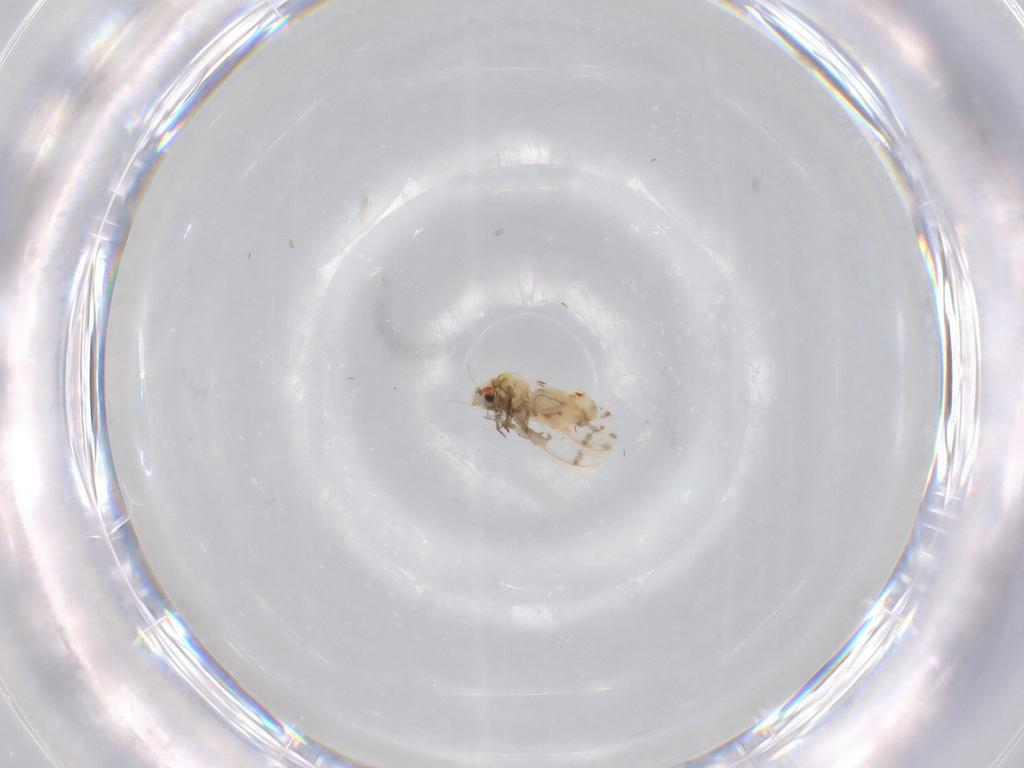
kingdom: Animalia
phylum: Arthropoda
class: Insecta
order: Hemiptera
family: Aleyrodidae
